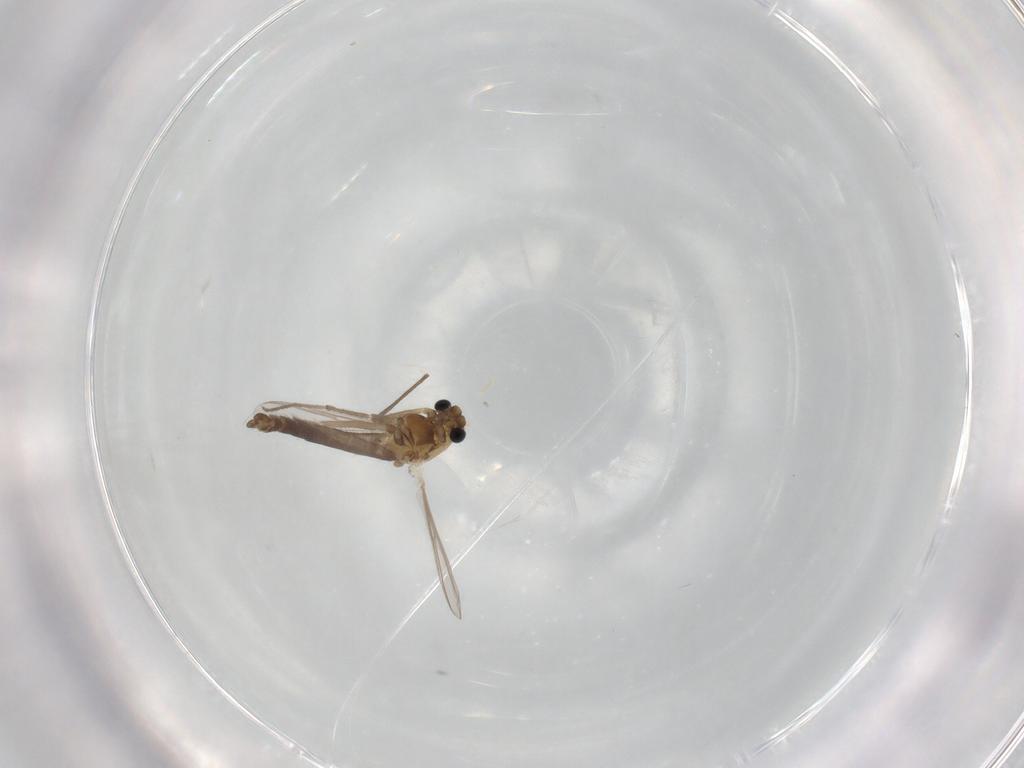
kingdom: Animalia
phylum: Arthropoda
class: Insecta
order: Diptera
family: Chironomidae
